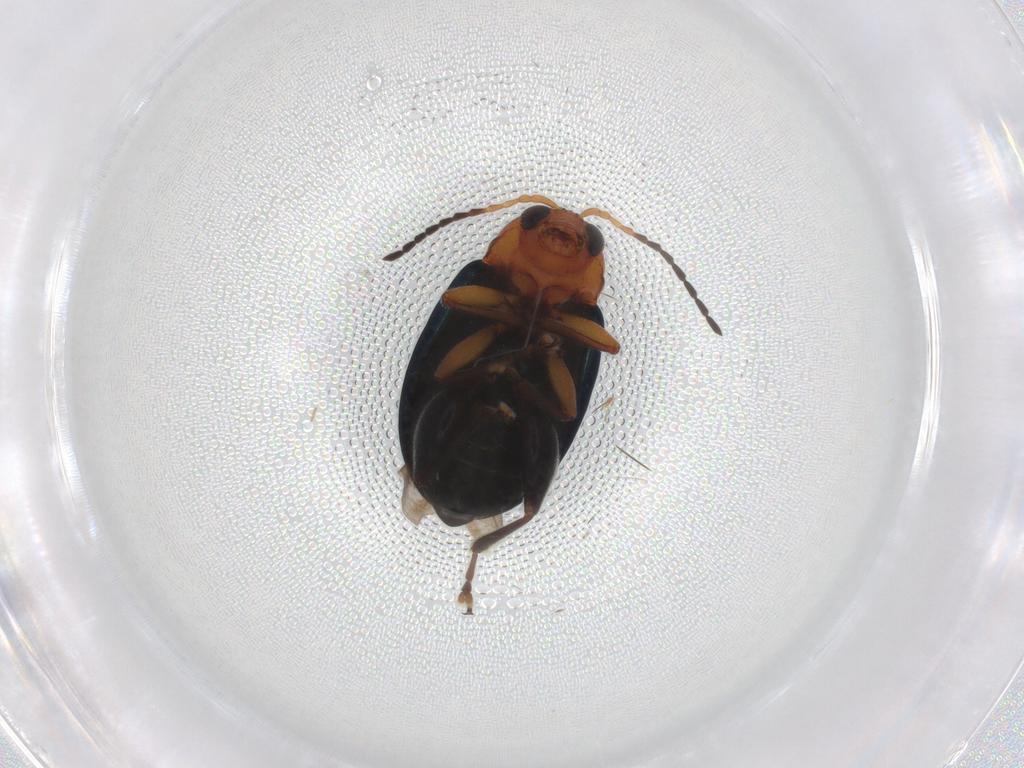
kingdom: Animalia
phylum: Arthropoda
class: Insecta
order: Coleoptera
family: Chrysomelidae
